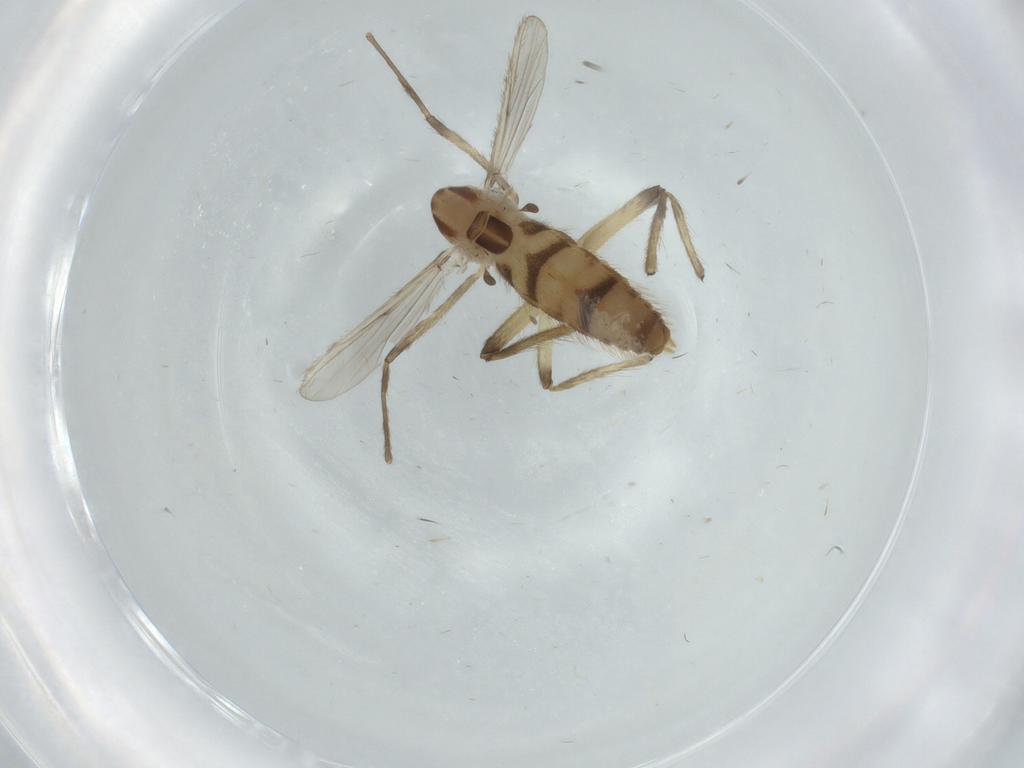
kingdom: Animalia
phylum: Arthropoda
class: Insecta
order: Diptera
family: Chironomidae
